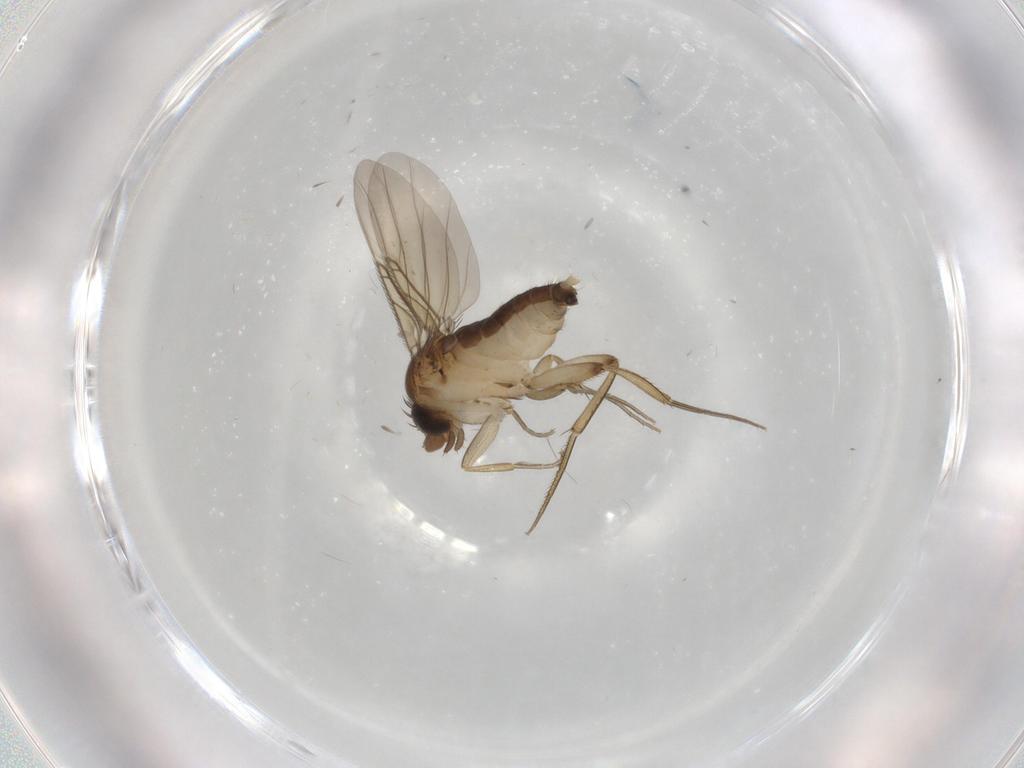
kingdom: Animalia
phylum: Arthropoda
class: Insecta
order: Diptera
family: Phoridae
